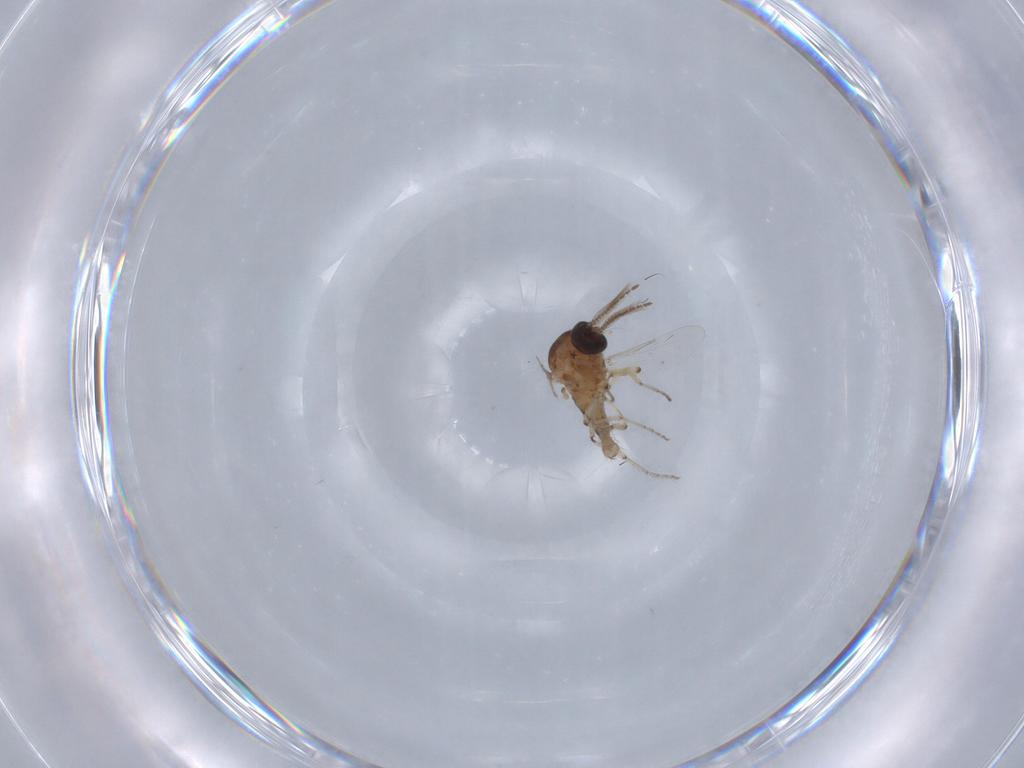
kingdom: Animalia
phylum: Arthropoda
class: Insecta
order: Diptera
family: Ceratopogonidae
